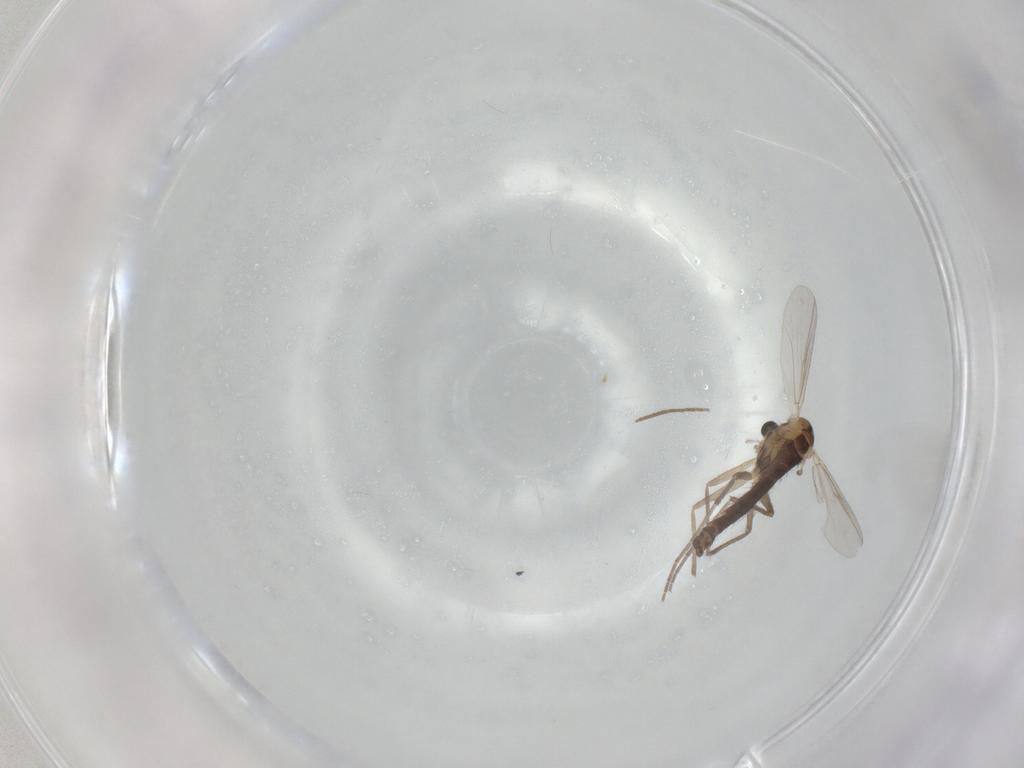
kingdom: Animalia
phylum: Arthropoda
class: Insecta
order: Diptera
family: Chironomidae
